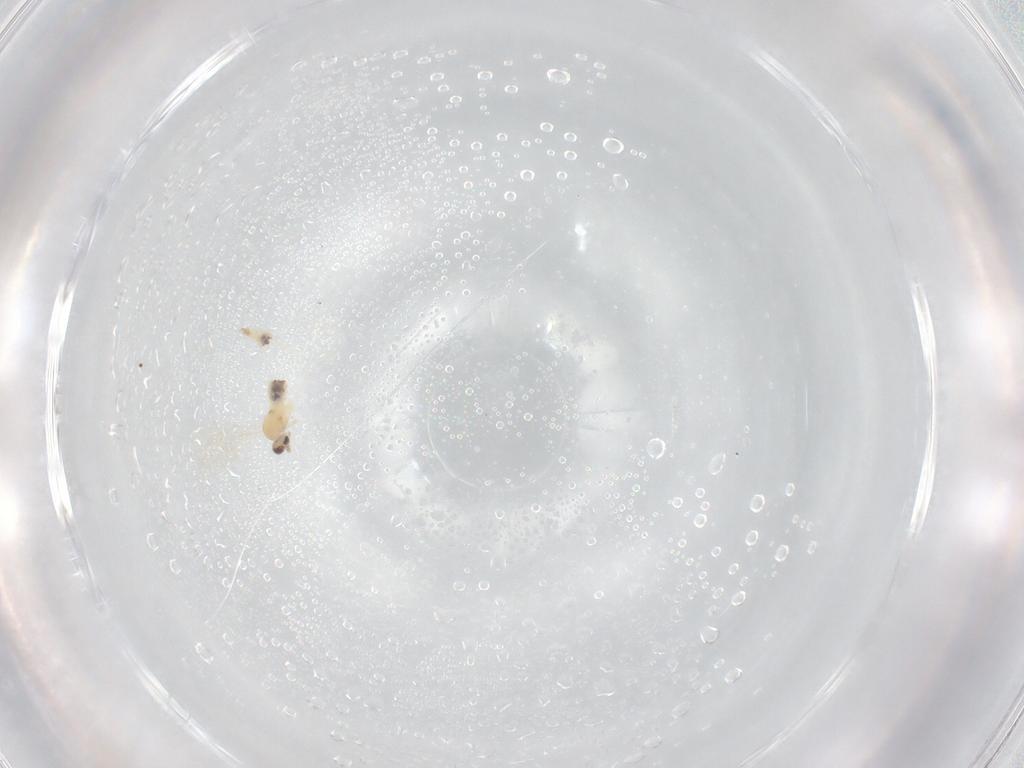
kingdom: Animalia
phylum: Arthropoda
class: Insecta
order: Diptera
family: Cecidomyiidae
